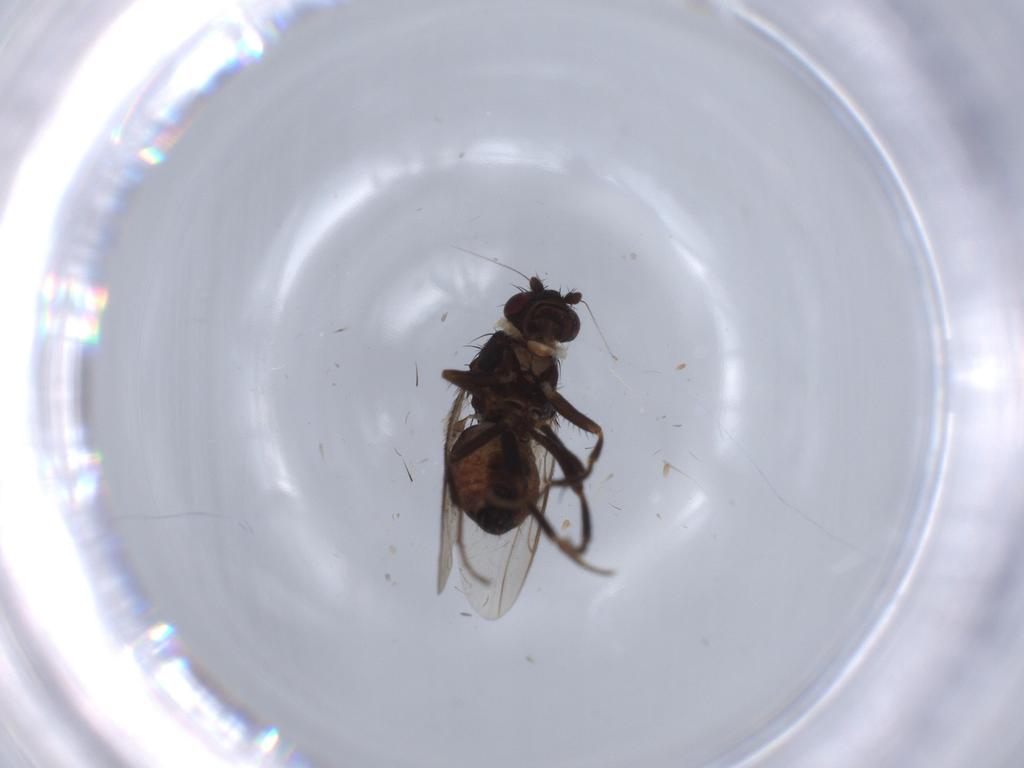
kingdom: Animalia
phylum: Arthropoda
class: Insecta
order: Diptera
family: Sphaeroceridae
